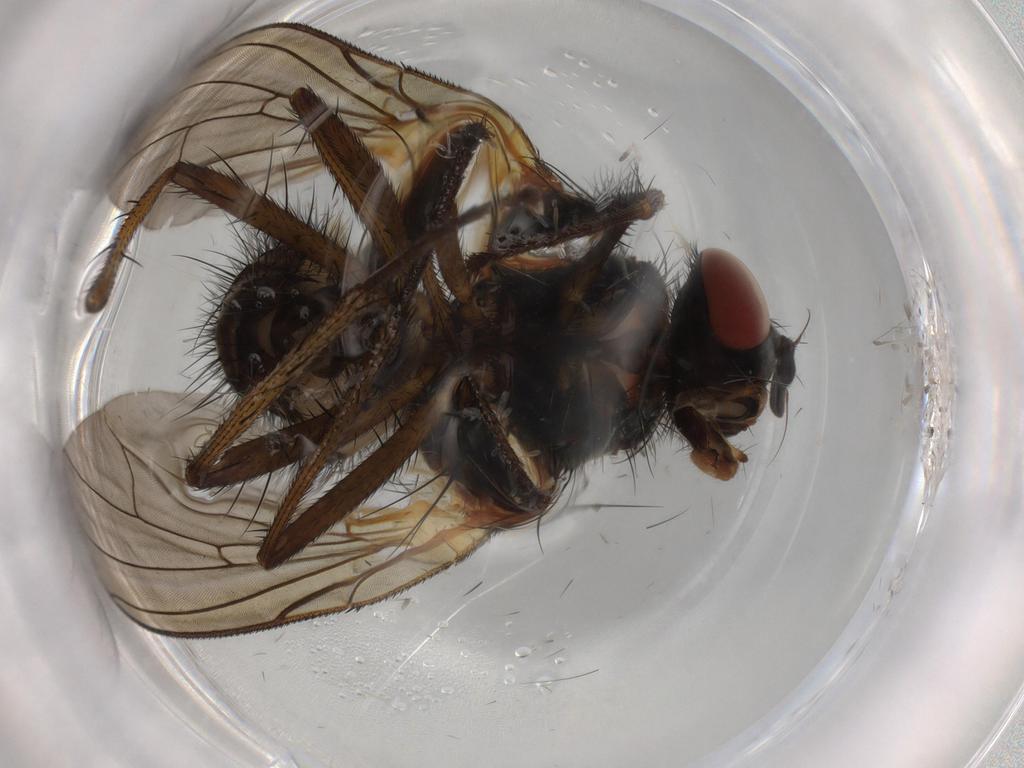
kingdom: Animalia
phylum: Arthropoda
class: Insecta
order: Diptera
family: Anthomyiidae
